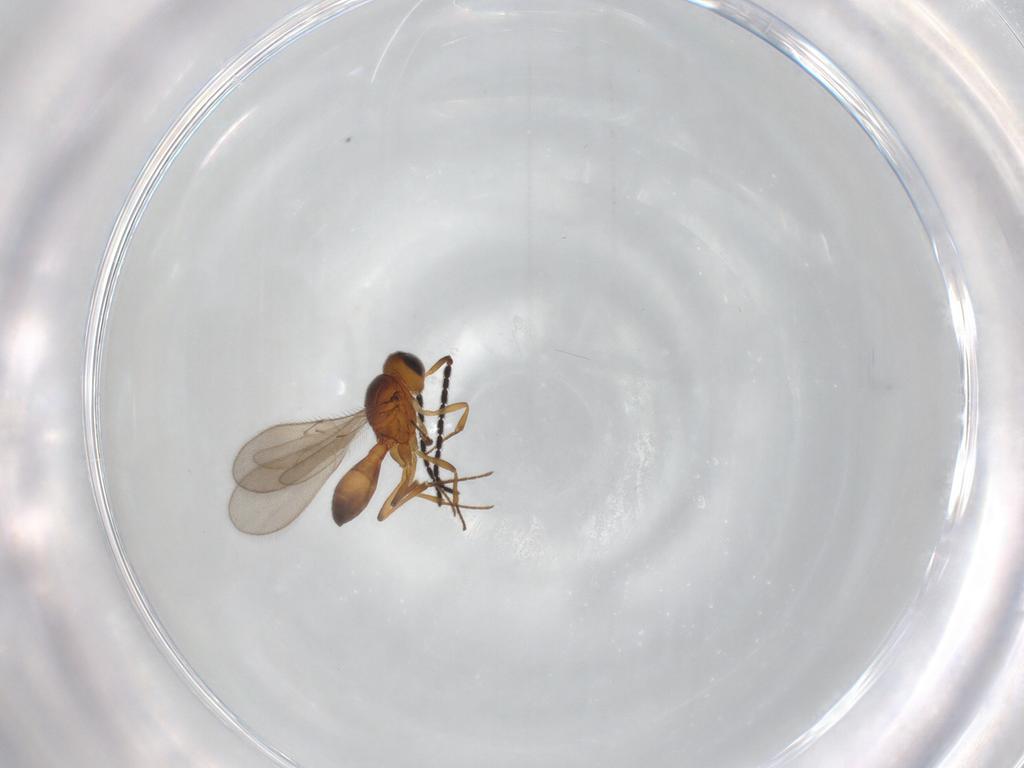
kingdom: Animalia
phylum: Arthropoda
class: Insecta
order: Hymenoptera
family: Scelionidae
